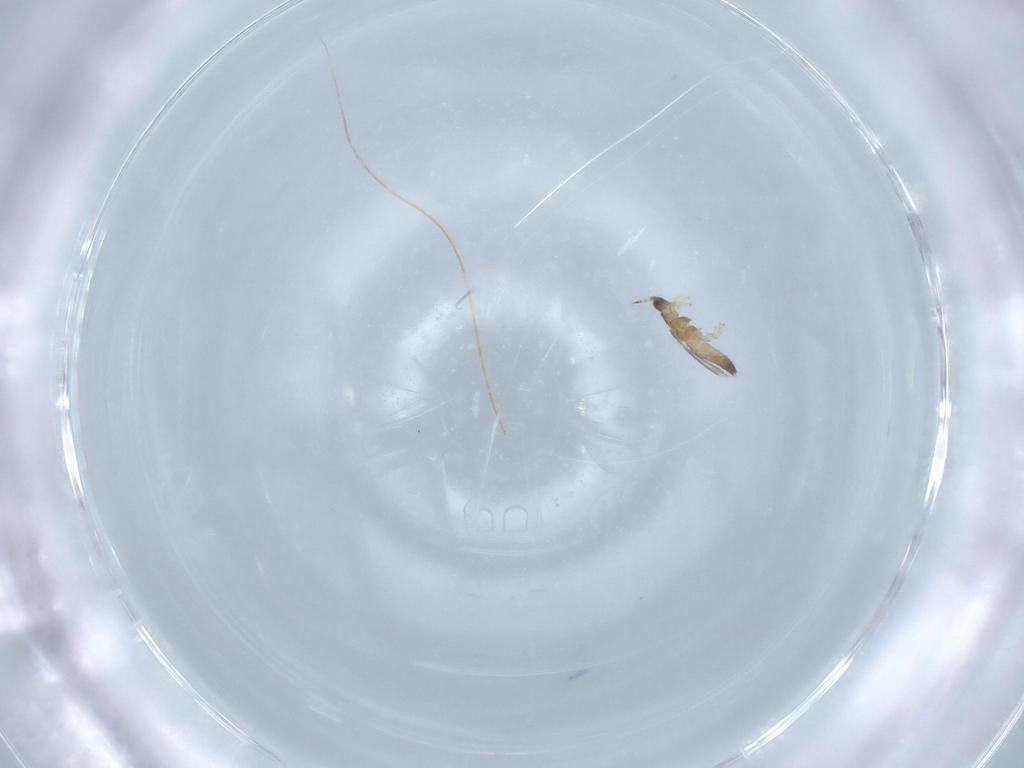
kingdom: Animalia
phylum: Arthropoda
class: Insecta
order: Thysanoptera
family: Thripidae
